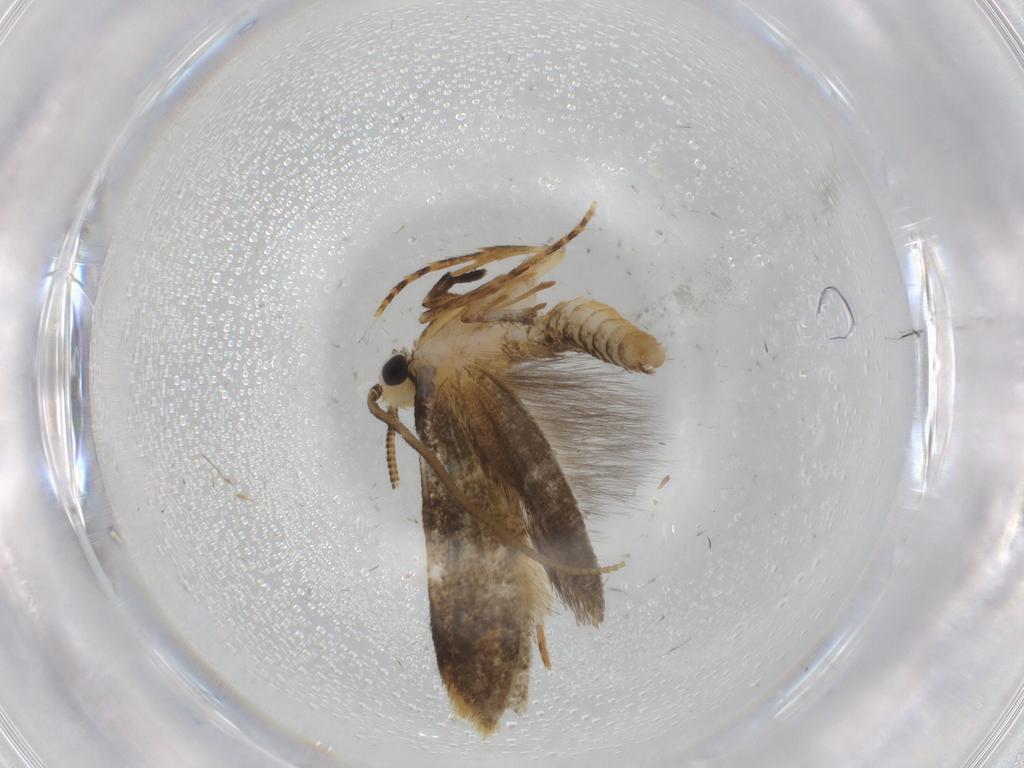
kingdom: Animalia
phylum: Arthropoda
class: Insecta
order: Lepidoptera
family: Tineidae
